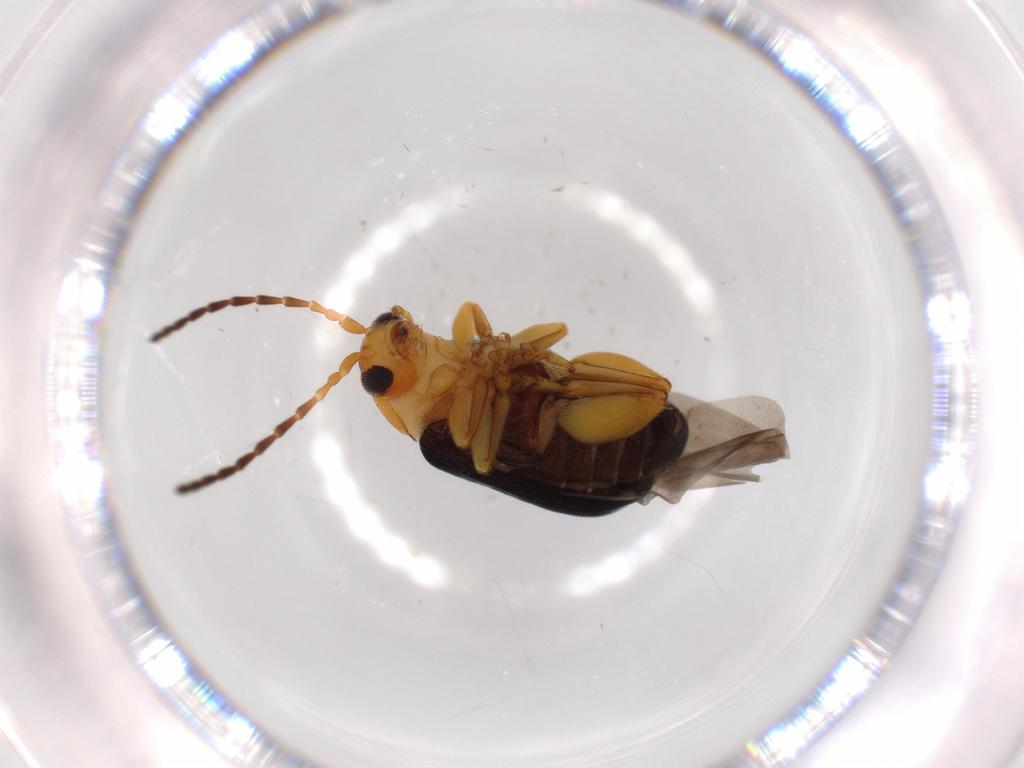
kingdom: Animalia
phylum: Arthropoda
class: Insecta
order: Coleoptera
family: Chrysomelidae
